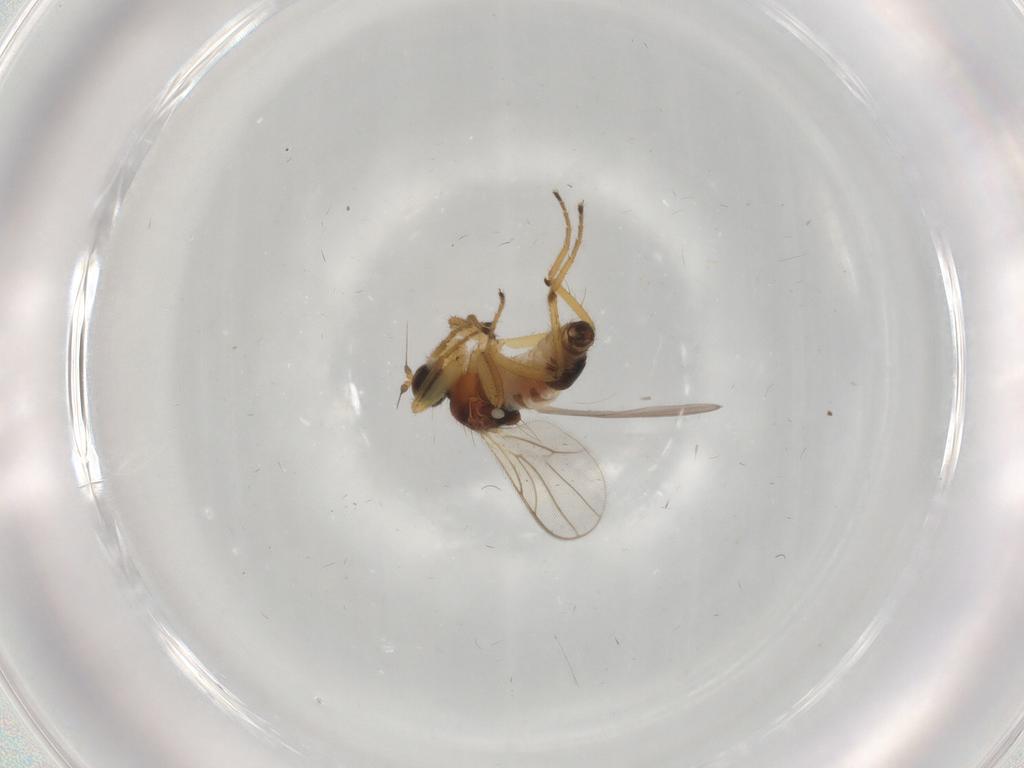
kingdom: Animalia
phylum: Arthropoda
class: Insecta
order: Diptera
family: Hybotidae
